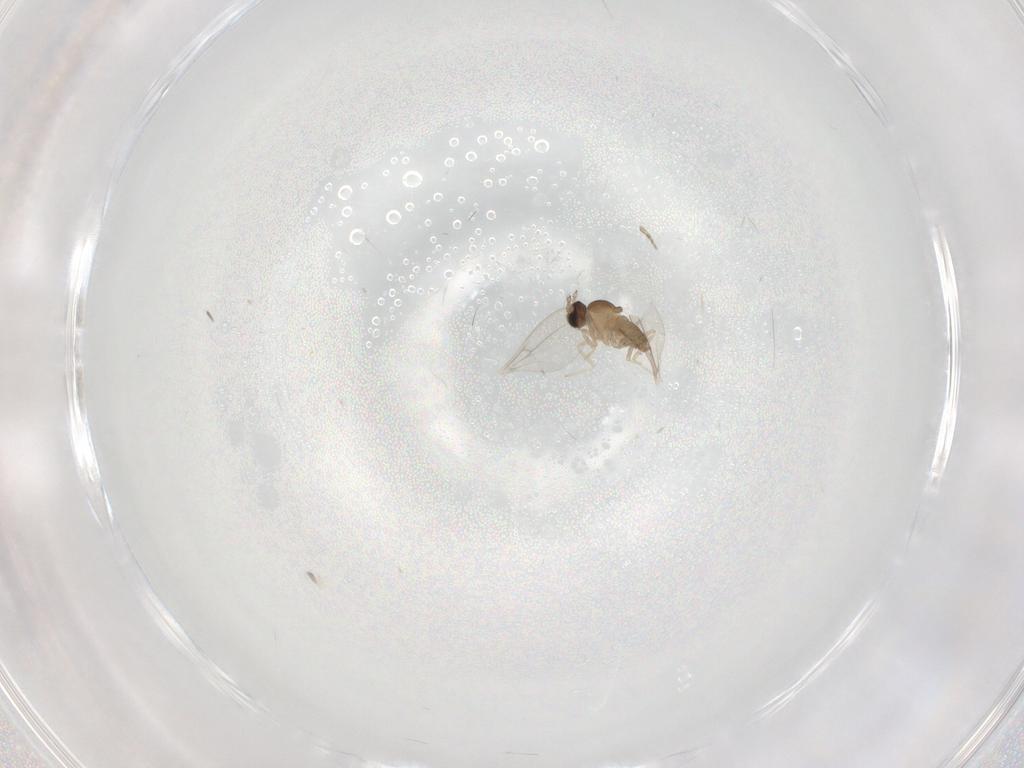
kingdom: Animalia
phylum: Arthropoda
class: Insecta
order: Diptera
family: Cecidomyiidae
